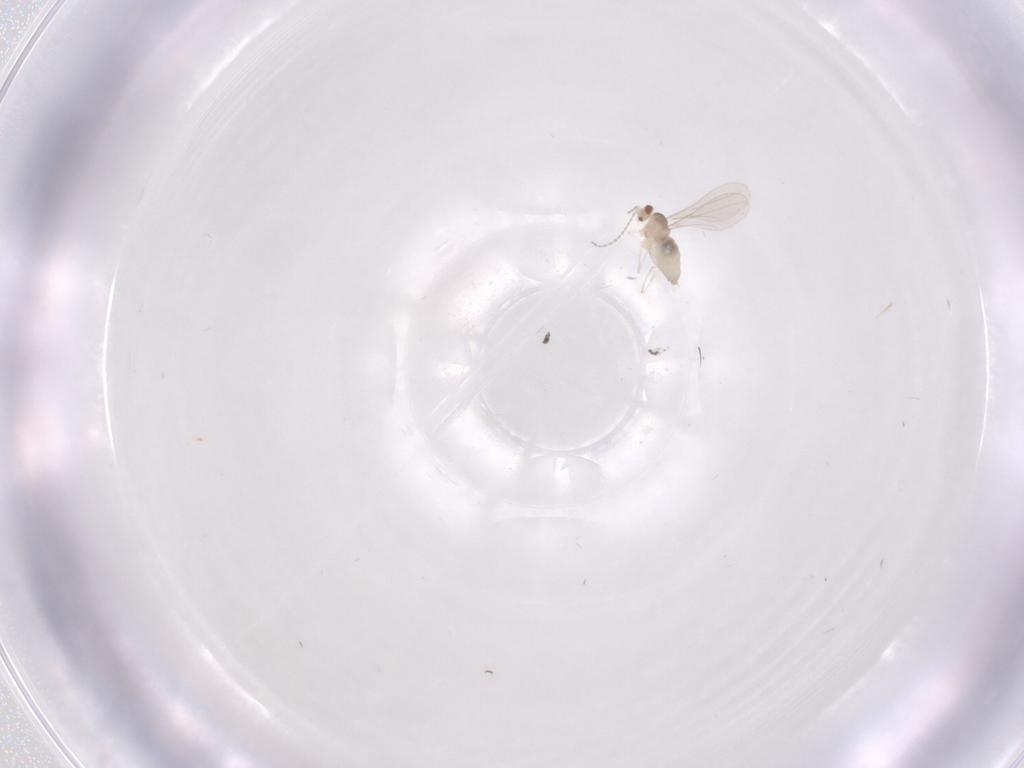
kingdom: Animalia
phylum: Arthropoda
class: Insecta
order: Diptera
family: Cecidomyiidae
